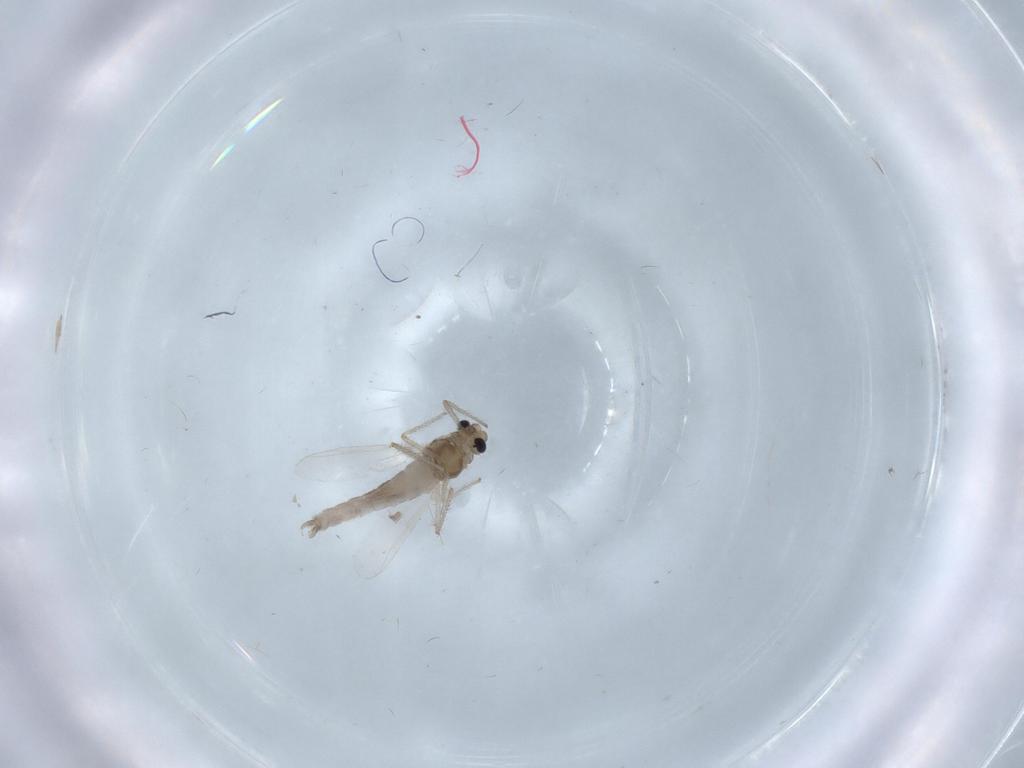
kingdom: Animalia
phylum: Arthropoda
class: Insecta
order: Diptera
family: Chironomidae
